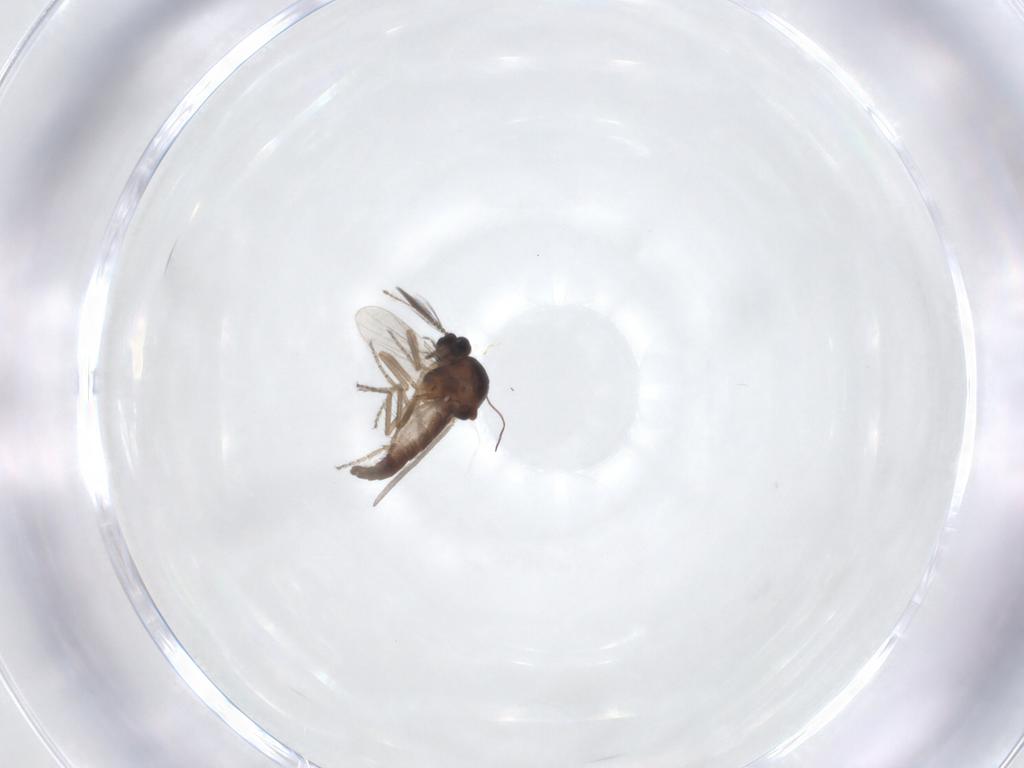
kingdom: Animalia
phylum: Arthropoda
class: Insecta
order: Diptera
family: Ceratopogonidae
